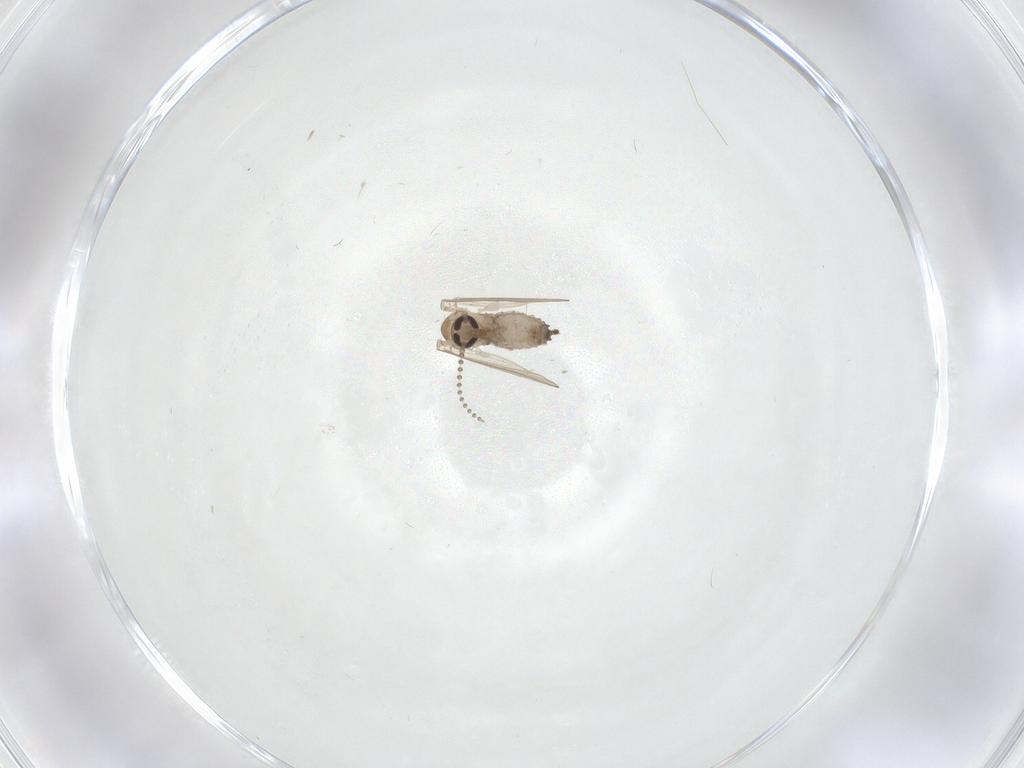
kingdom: Animalia
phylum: Arthropoda
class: Insecta
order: Diptera
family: Psychodidae
